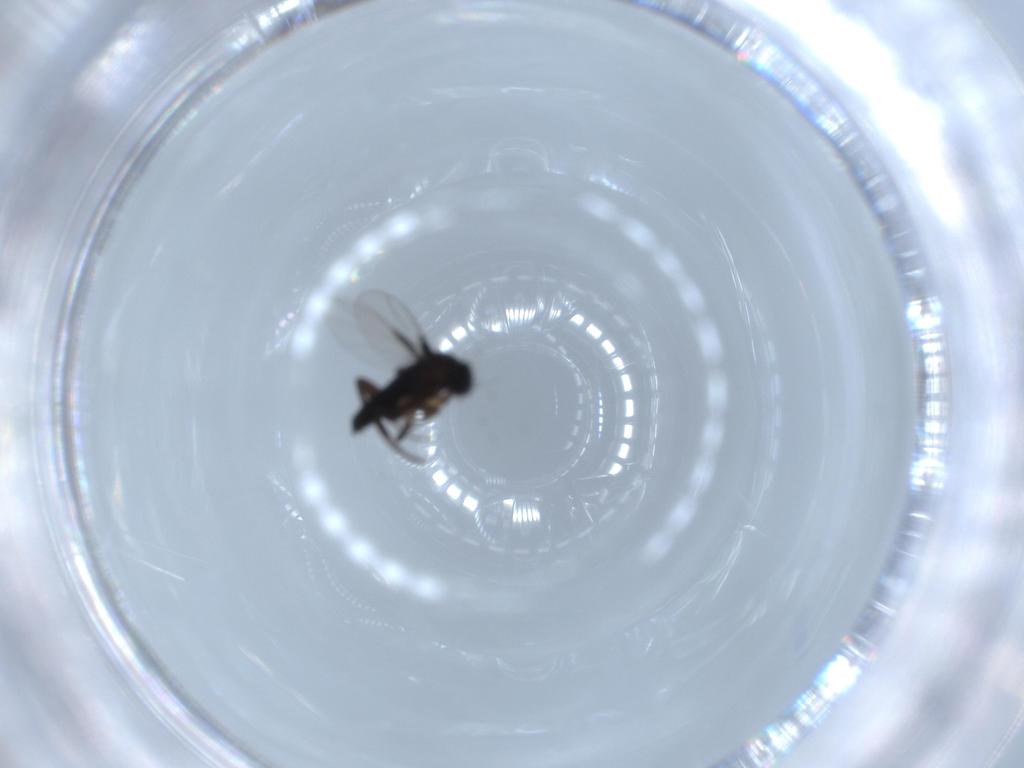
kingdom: Animalia
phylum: Arthropoda
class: Insecta
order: Diptera
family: Phoridae
